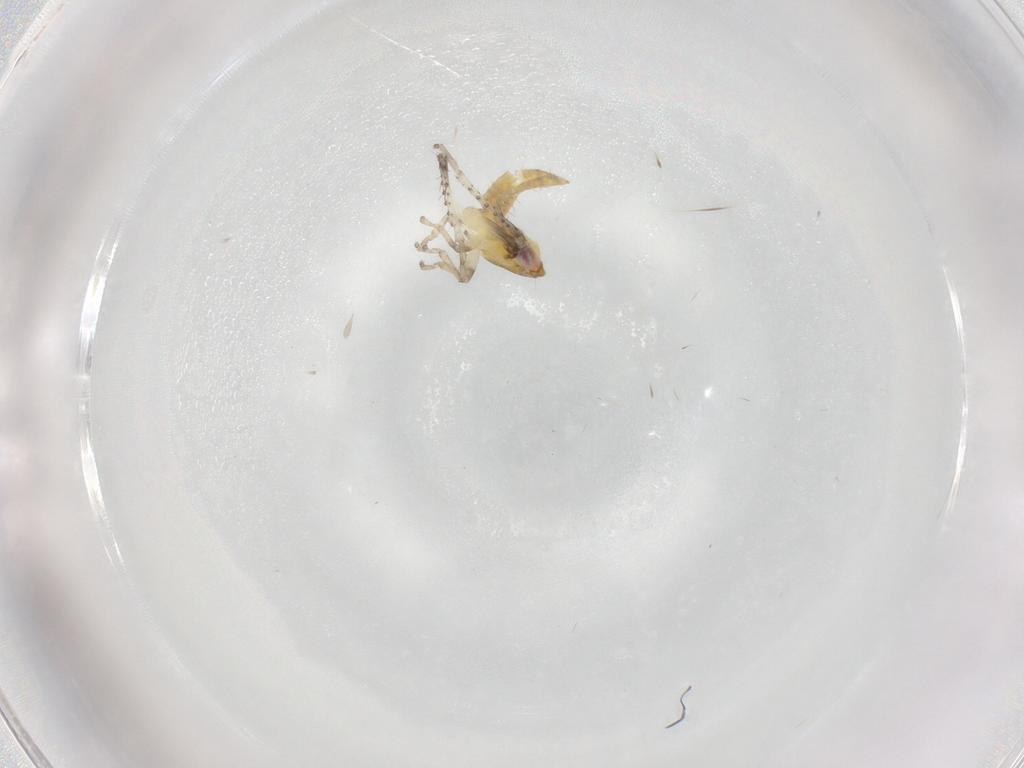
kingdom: Animalia
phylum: Arthropoda
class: Insecta
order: Hemiptera
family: Cicadellidae
